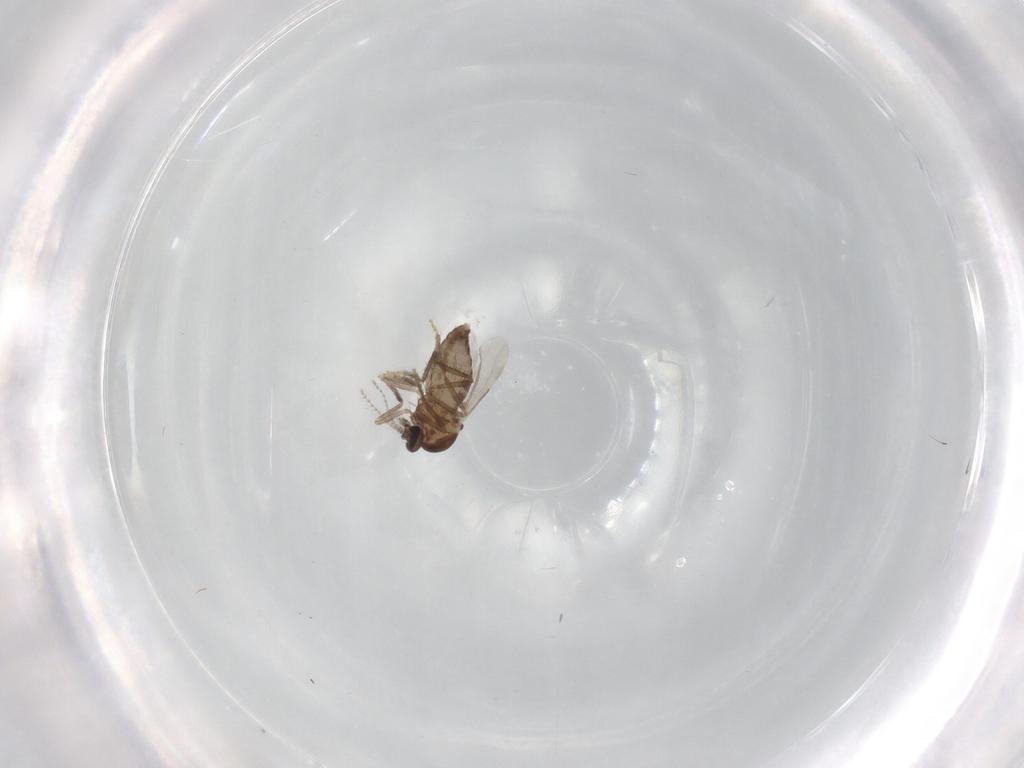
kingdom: Animalia
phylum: Arthropoda
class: Insecta
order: Diptera
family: Ceratopogonidae
